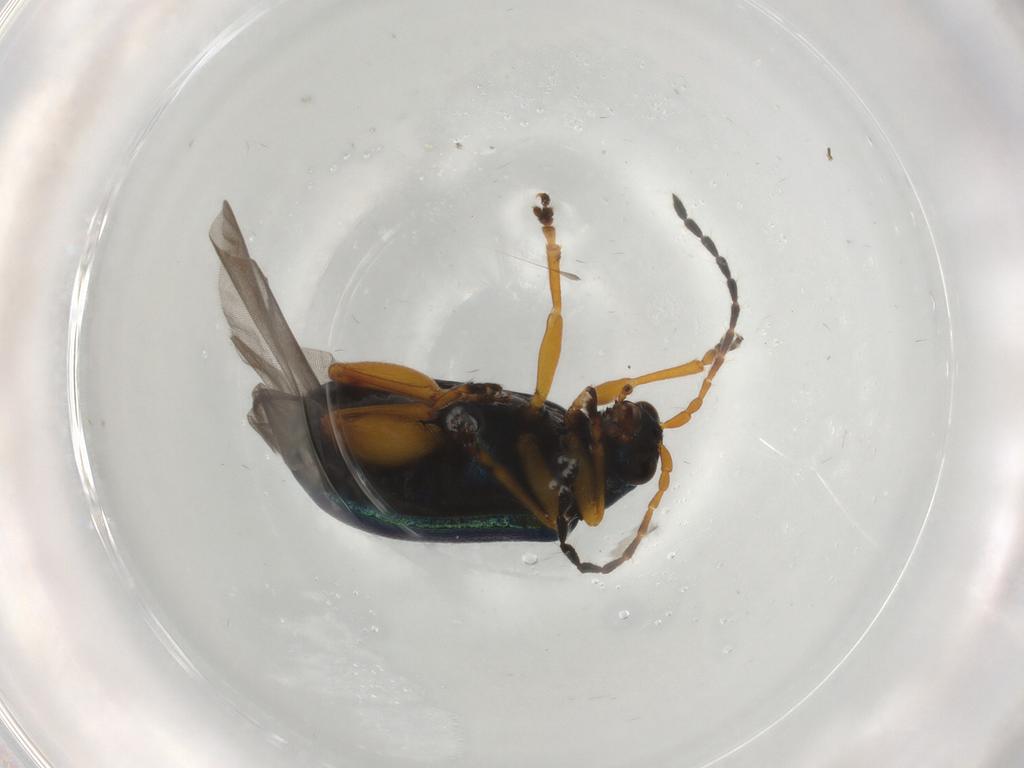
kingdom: Animalia
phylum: Arthropoda
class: Insecta
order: Coleoptera
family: Chrysomelidae
